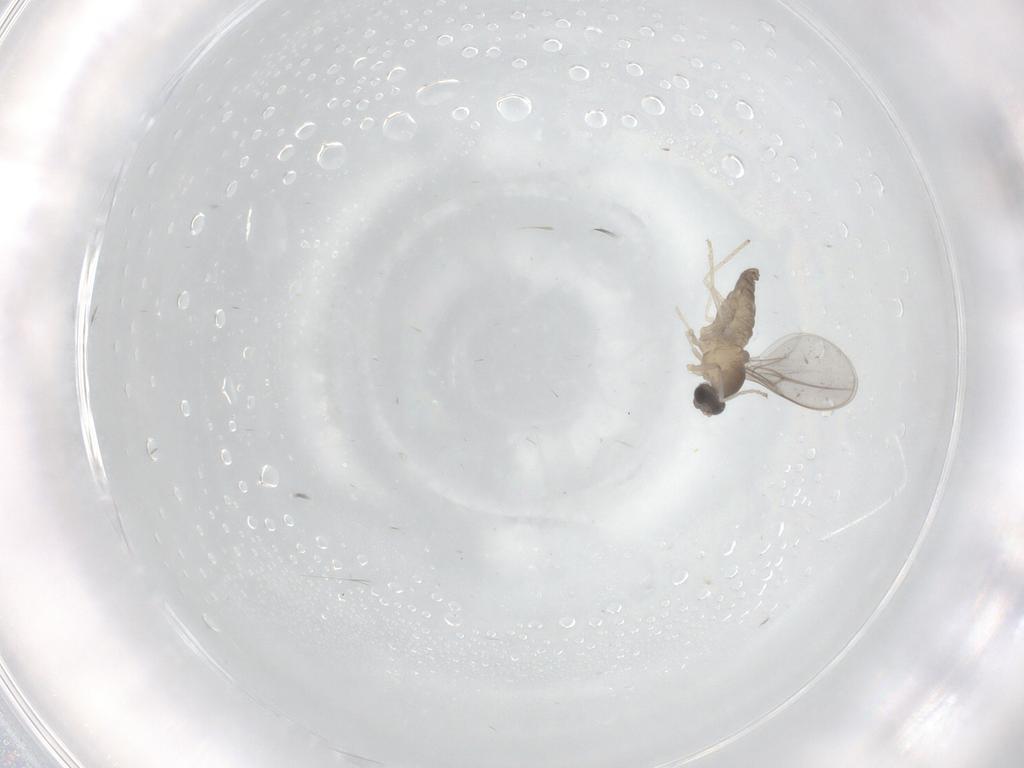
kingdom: Animalia
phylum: Arthropoda
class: Insecta
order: Diptera
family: Cecidomyiidae
